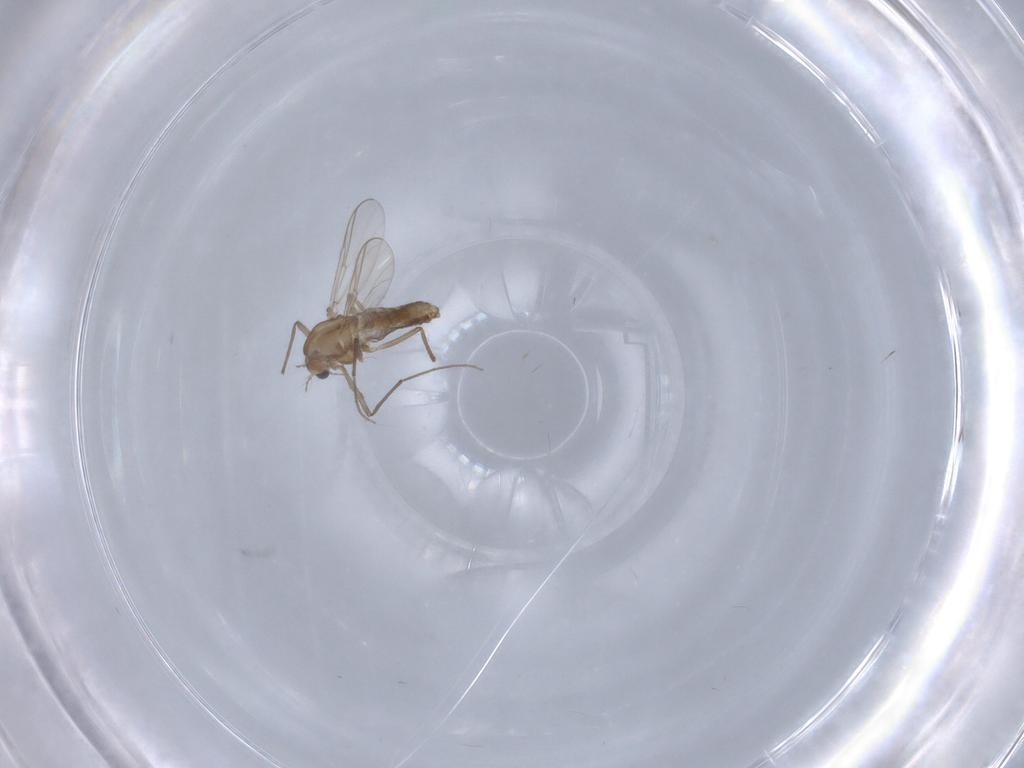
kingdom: Animalia
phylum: Arthropoda
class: Insecta
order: Diptera
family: Chironomidae
